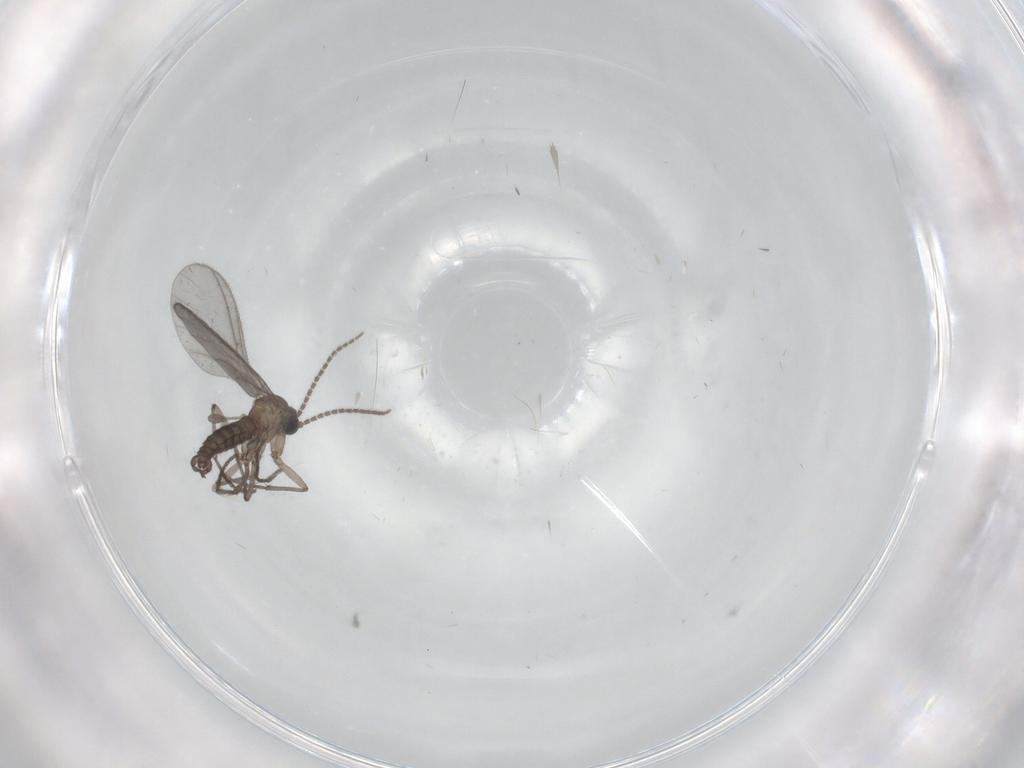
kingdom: Animalia
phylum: Arthropoda
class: Insecta
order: Diptera
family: Sciaridae
